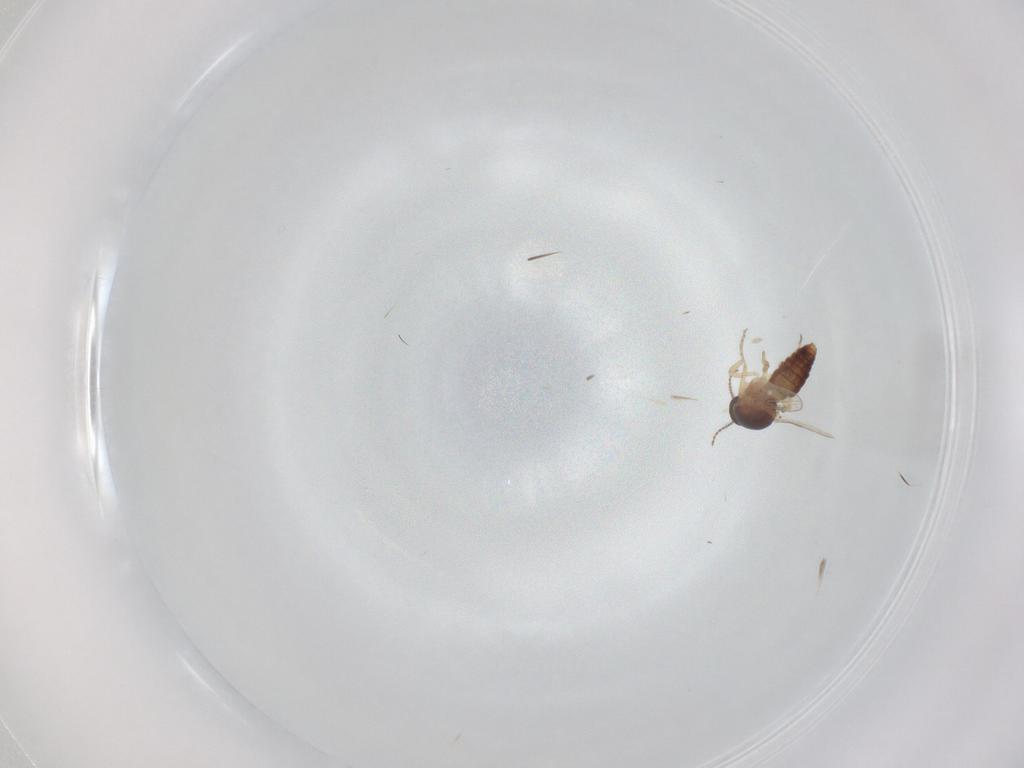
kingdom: Animalia
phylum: Arthropoda
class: Insecta
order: Diptera
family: Ceratopogonidae
